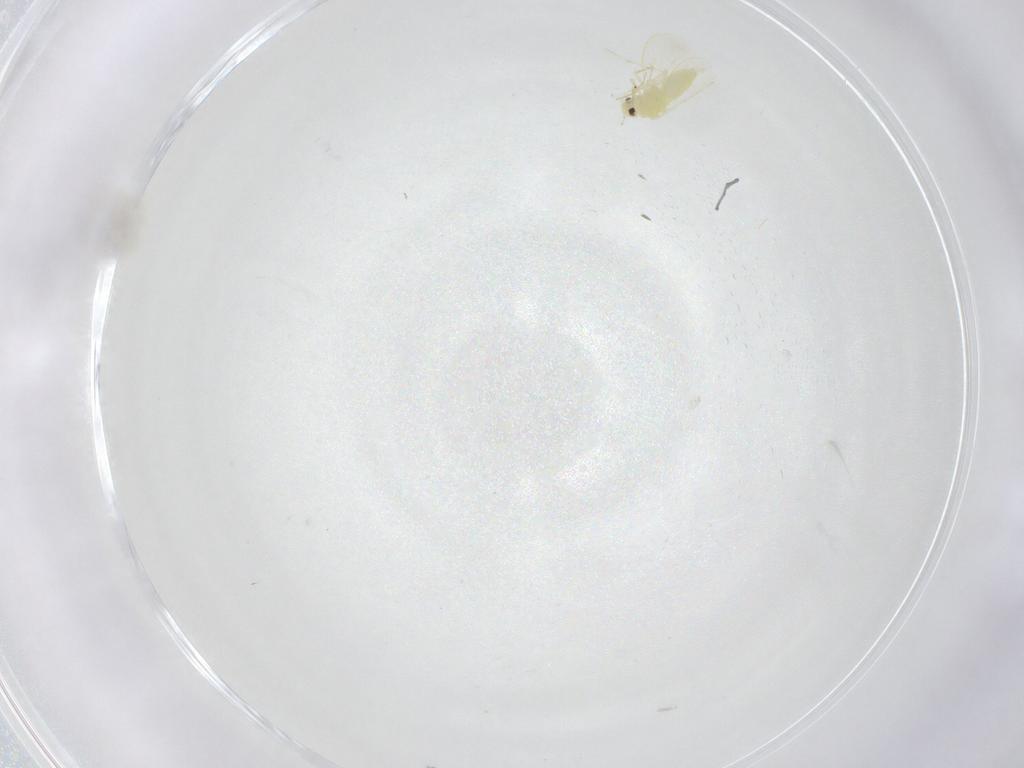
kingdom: Animalia
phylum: Arthropoda
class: Insecta
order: Hemiptera
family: Aleyrodidae
